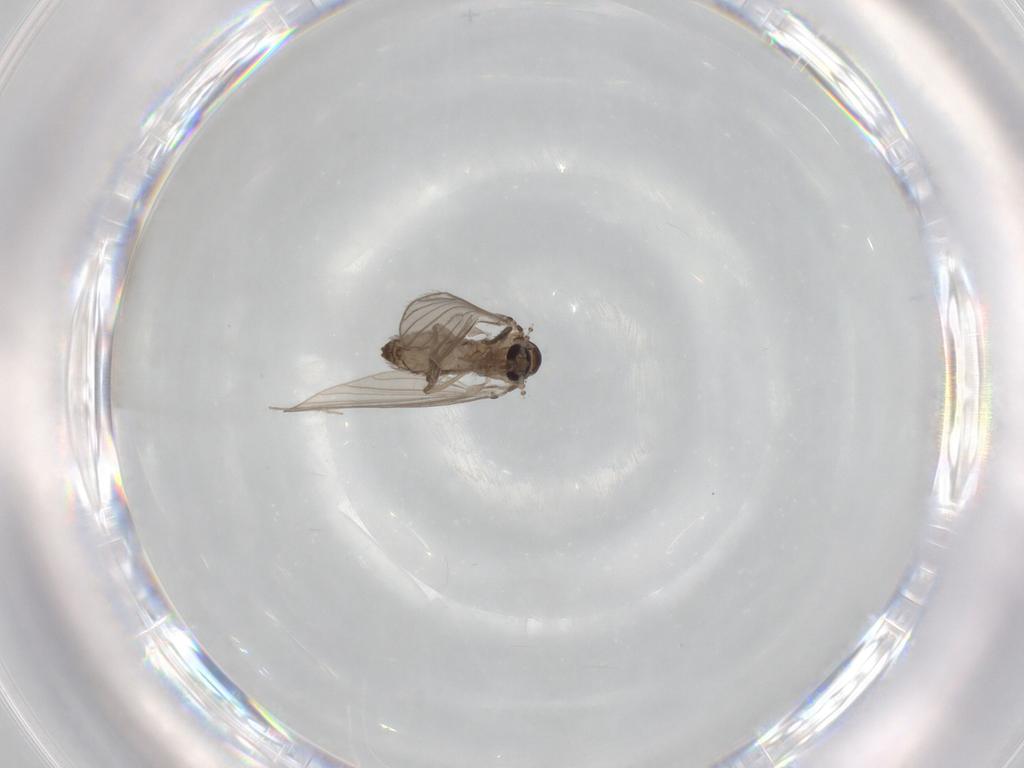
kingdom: Animalia
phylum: Arthropoda
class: Insecta
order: Diptera
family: Psychodidae
